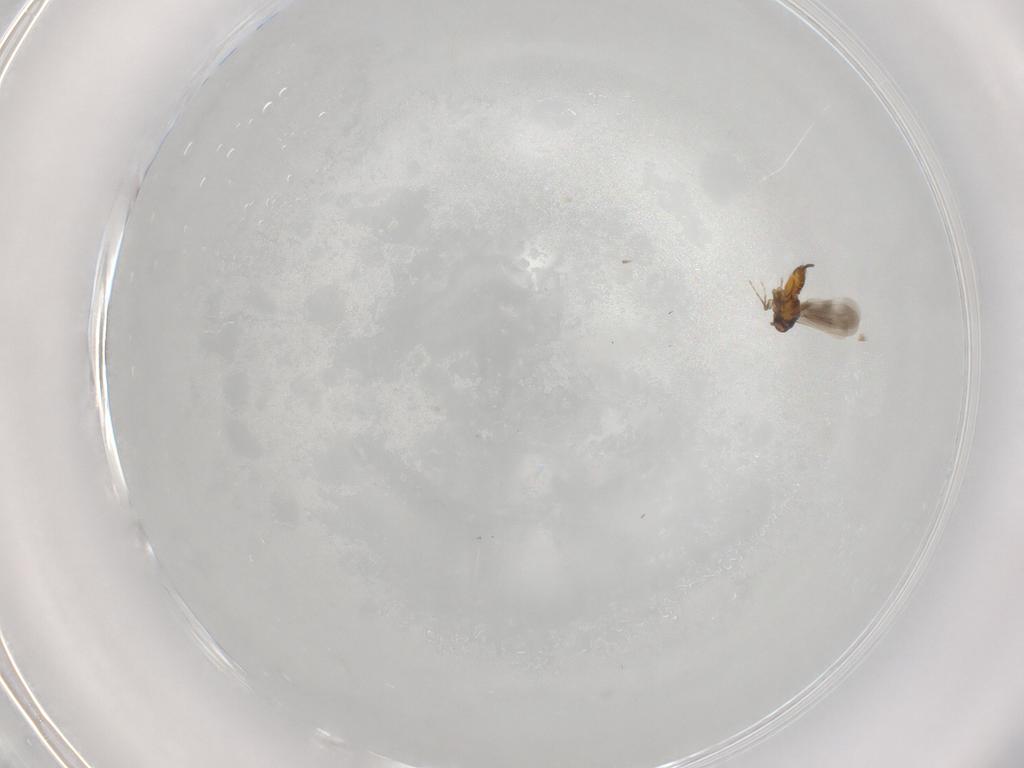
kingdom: Animalia
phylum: Arthropoda
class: Insecta
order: Hemiptera
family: Aleyrodidae
